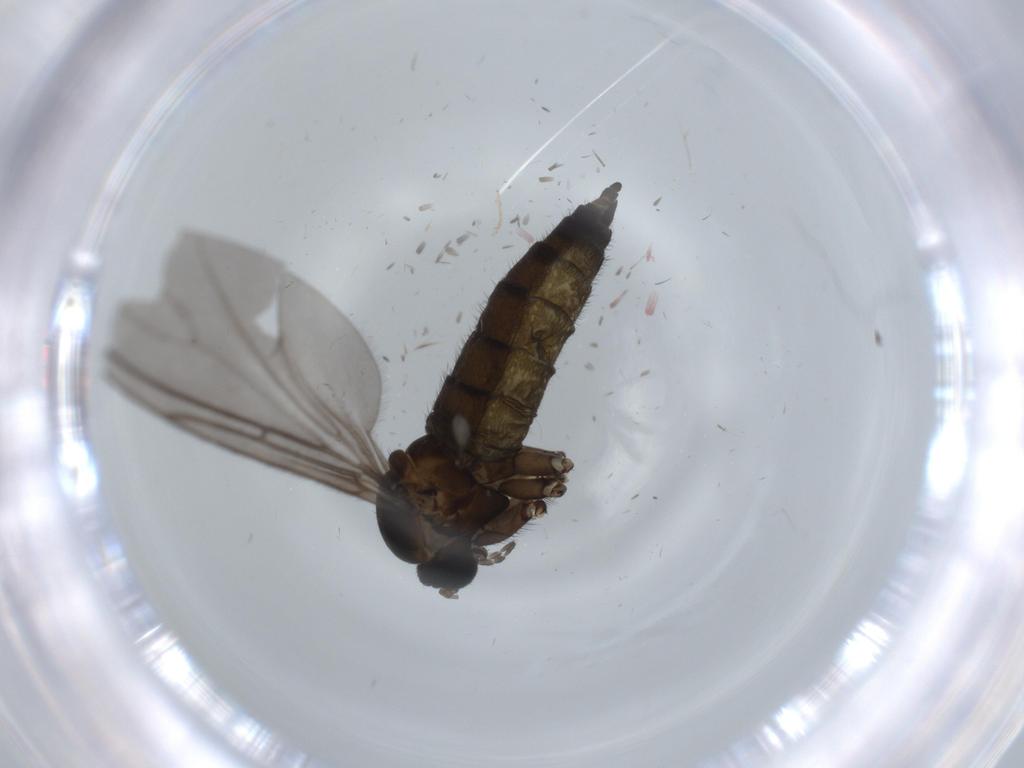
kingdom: Animalia
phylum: Arthropoda
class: Insecta
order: Diptera
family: Sciaridae
